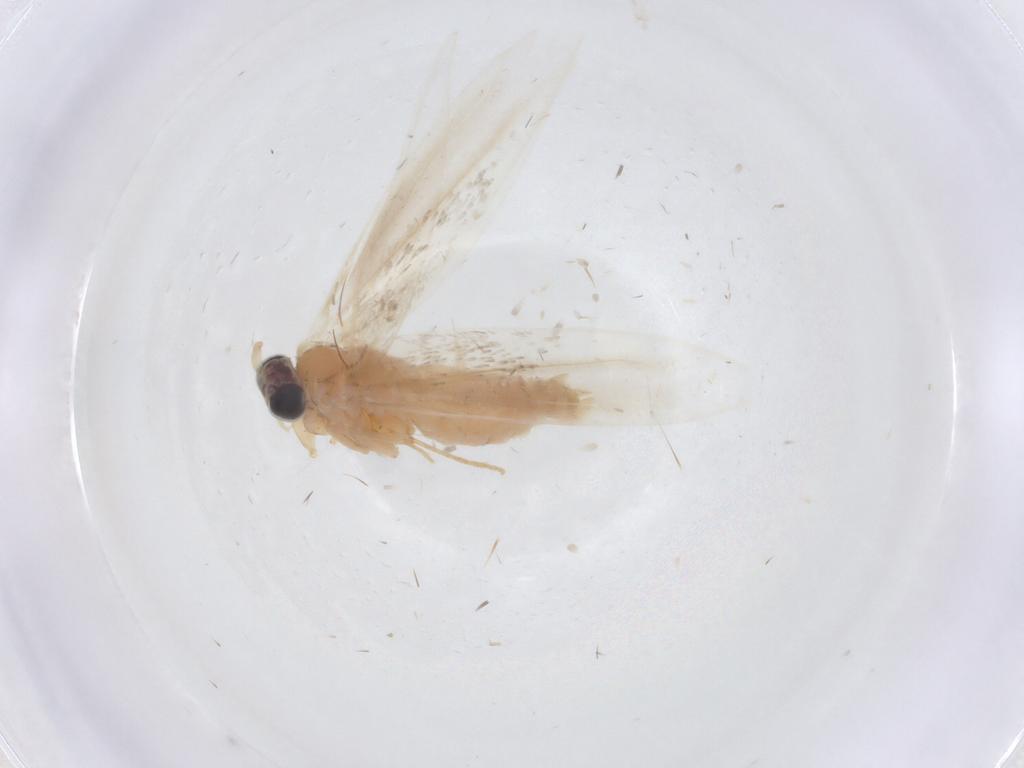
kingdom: Animalia
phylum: Arthropoda
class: Insecta
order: Lepidoptera
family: Crambidae
